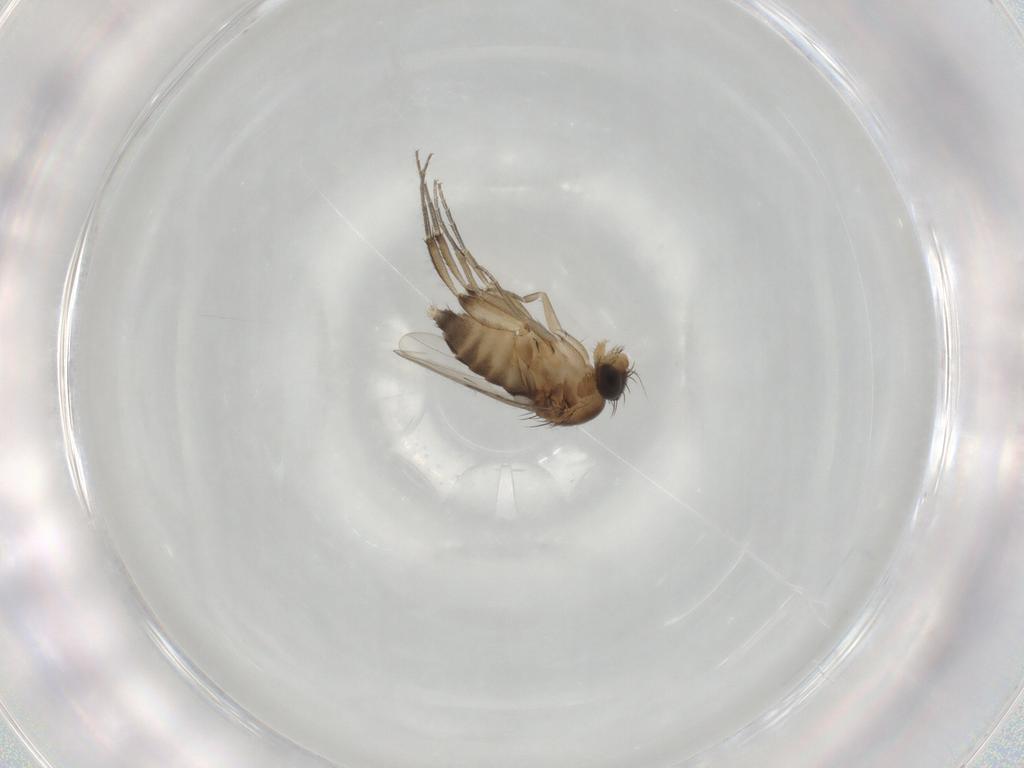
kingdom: Animalia
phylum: Arthropoda
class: Insecta
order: Diptera
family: Phoridae
